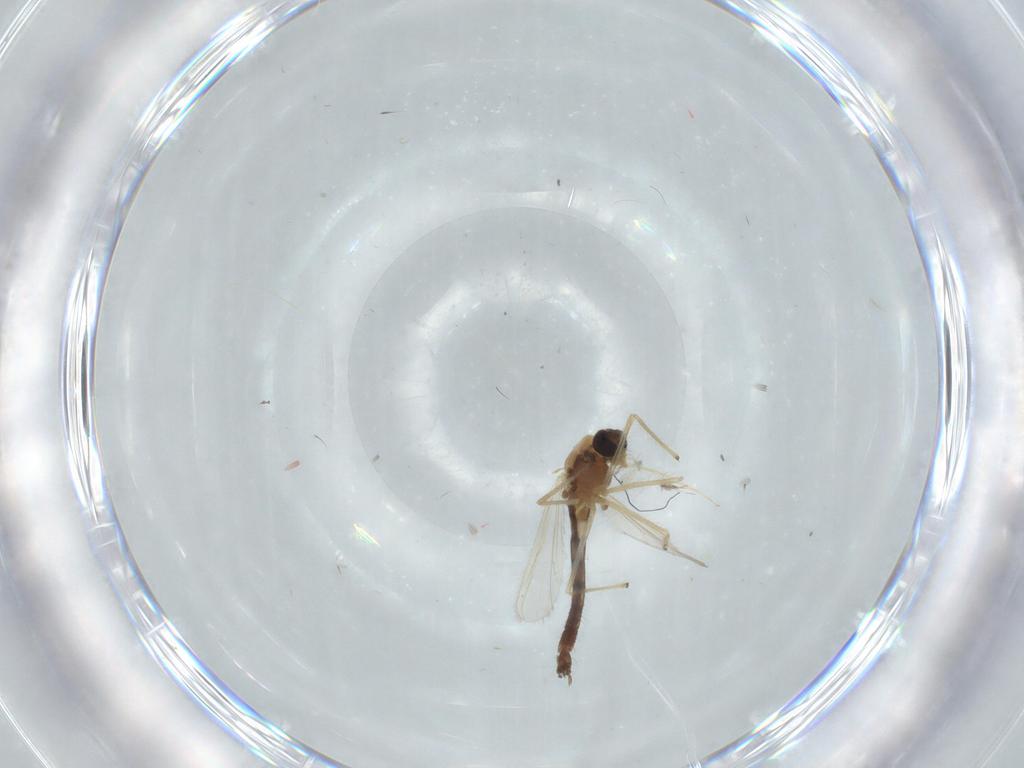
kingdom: Animalia
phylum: Arthropoda
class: Insecta
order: Diptera
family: Chironomidae
